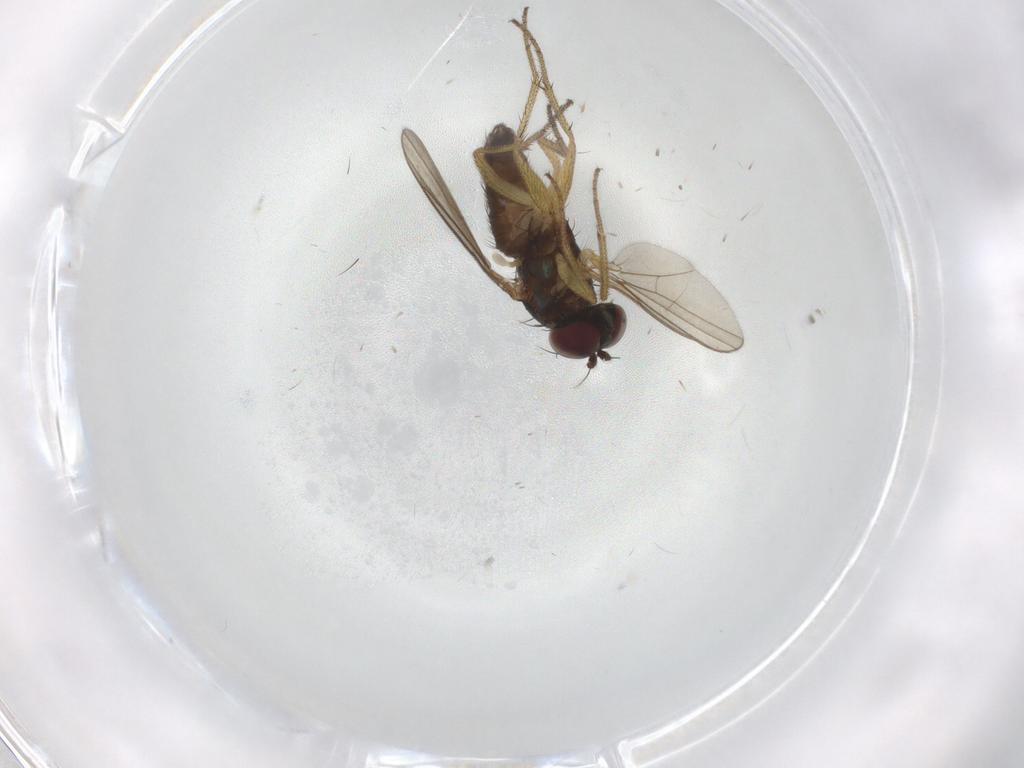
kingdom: Animalia
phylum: Arthropoda
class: Insecta
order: Diptera
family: Dolichopodidae
